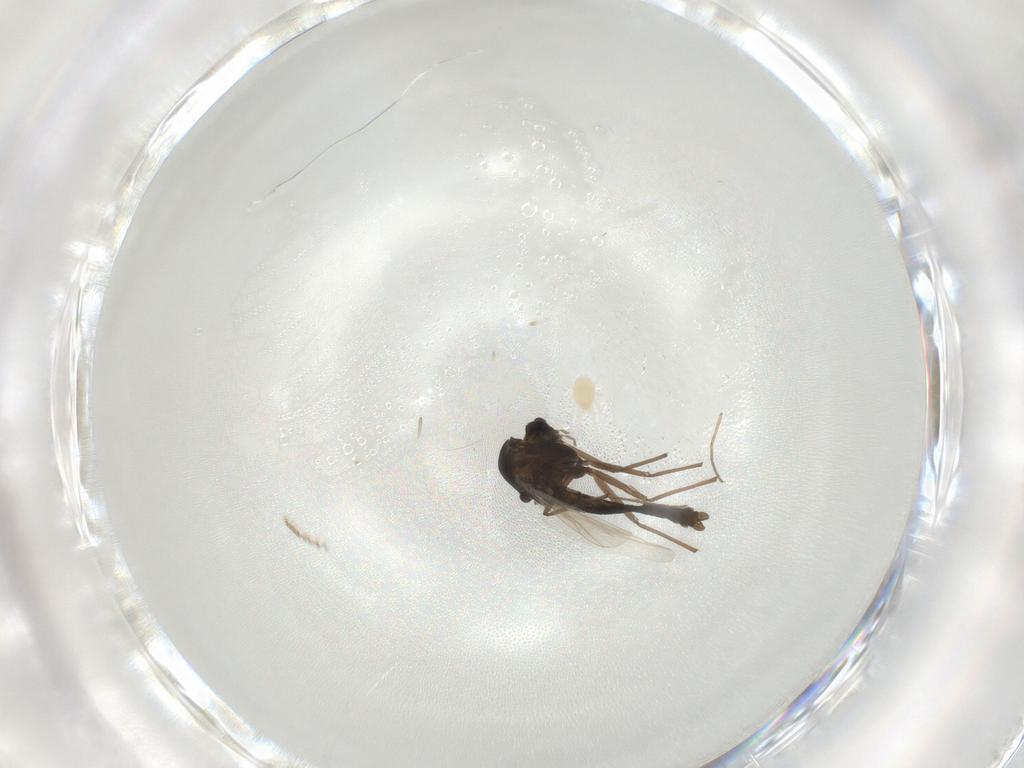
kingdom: Animalia
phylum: Arthropoda
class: Insecta
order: Diptera
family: Chironomidae
